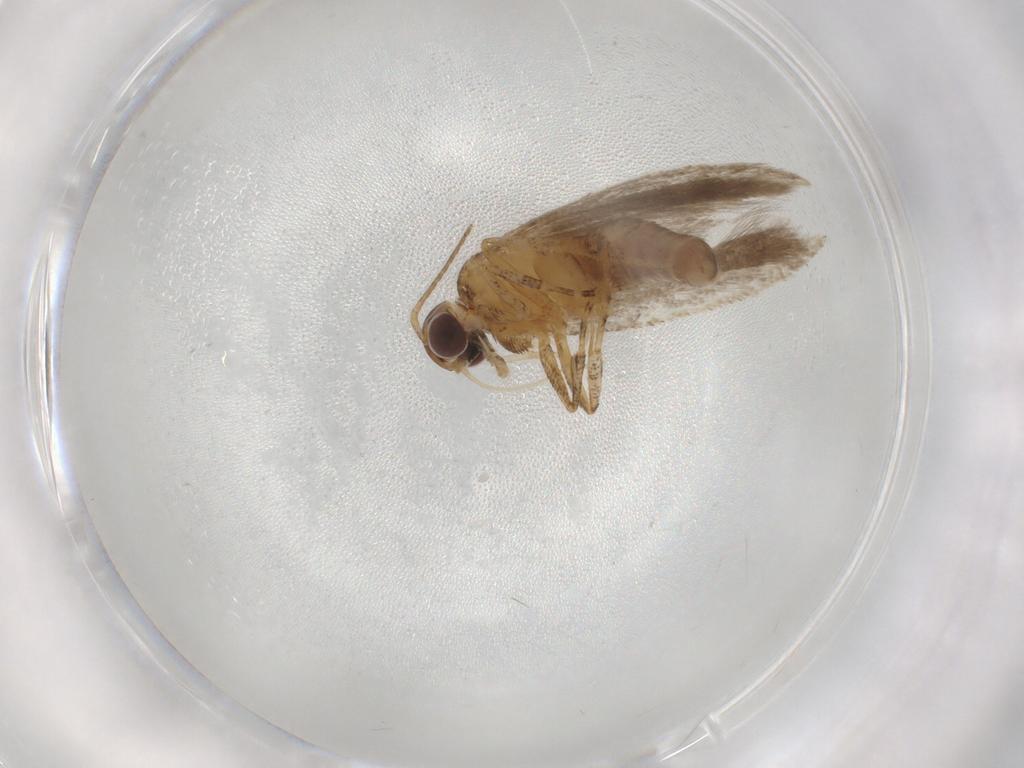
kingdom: Animalia
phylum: Arthropoda
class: Insecta
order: Lepidoptera
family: Gelechiidae
